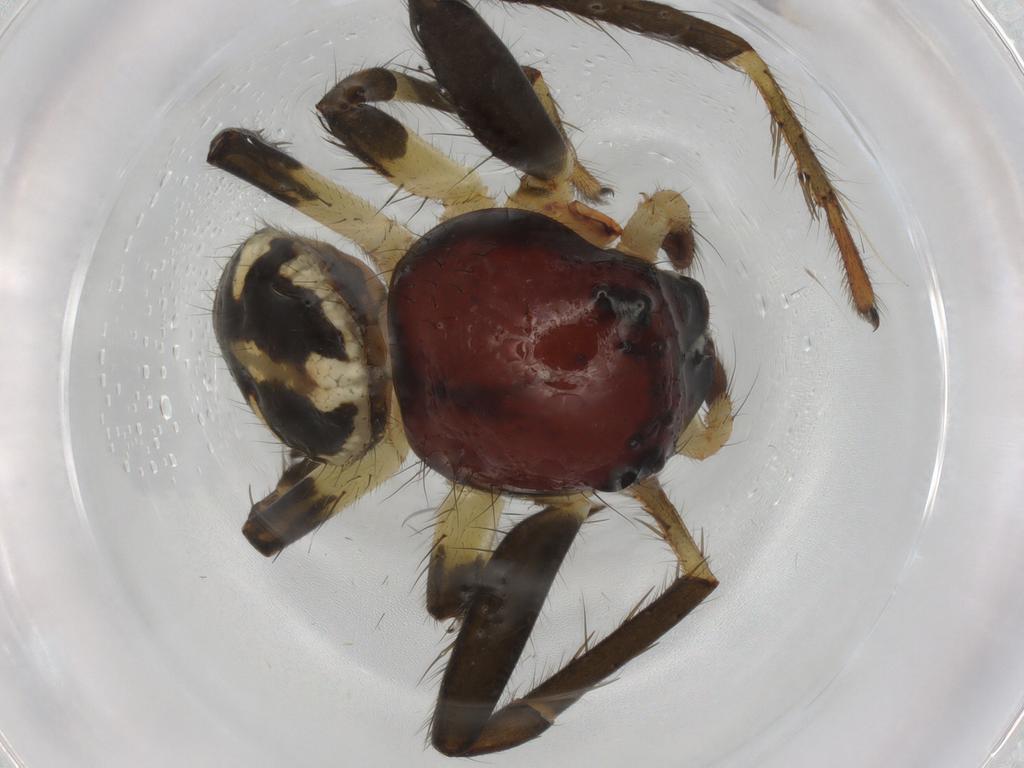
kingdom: Animalia
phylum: Arthropoda
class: Arachnida
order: Araneae
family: Thomisidae
